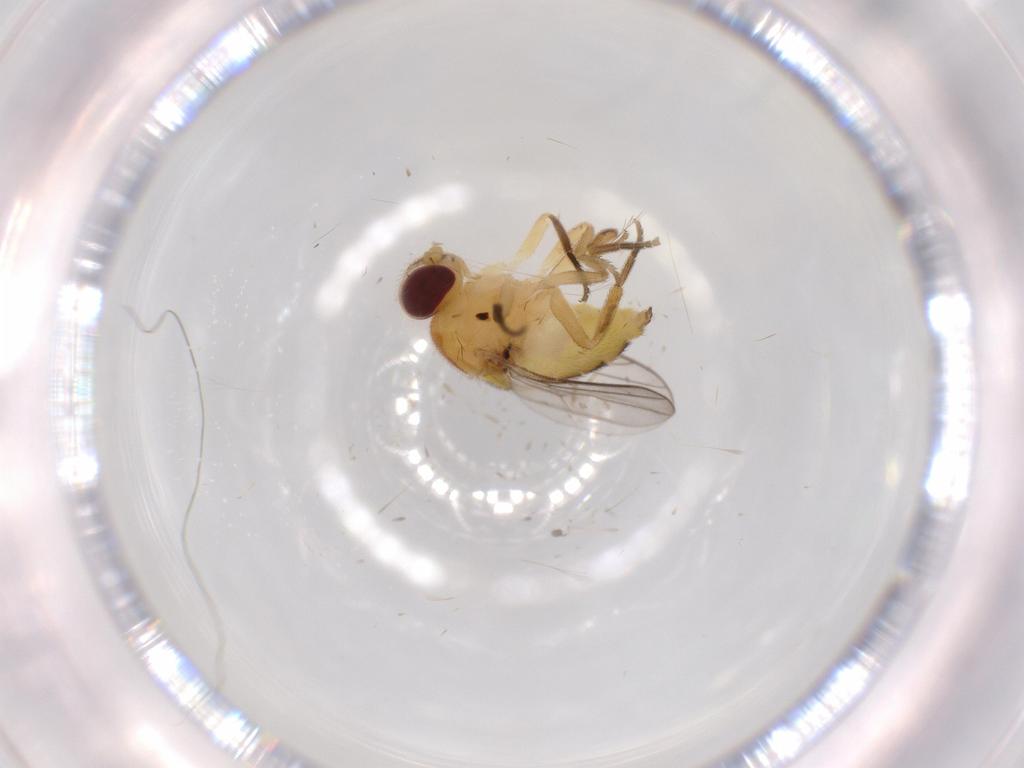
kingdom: Animalia
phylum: Arthropoda
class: Insecta
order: Diptera
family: Chloropidae
